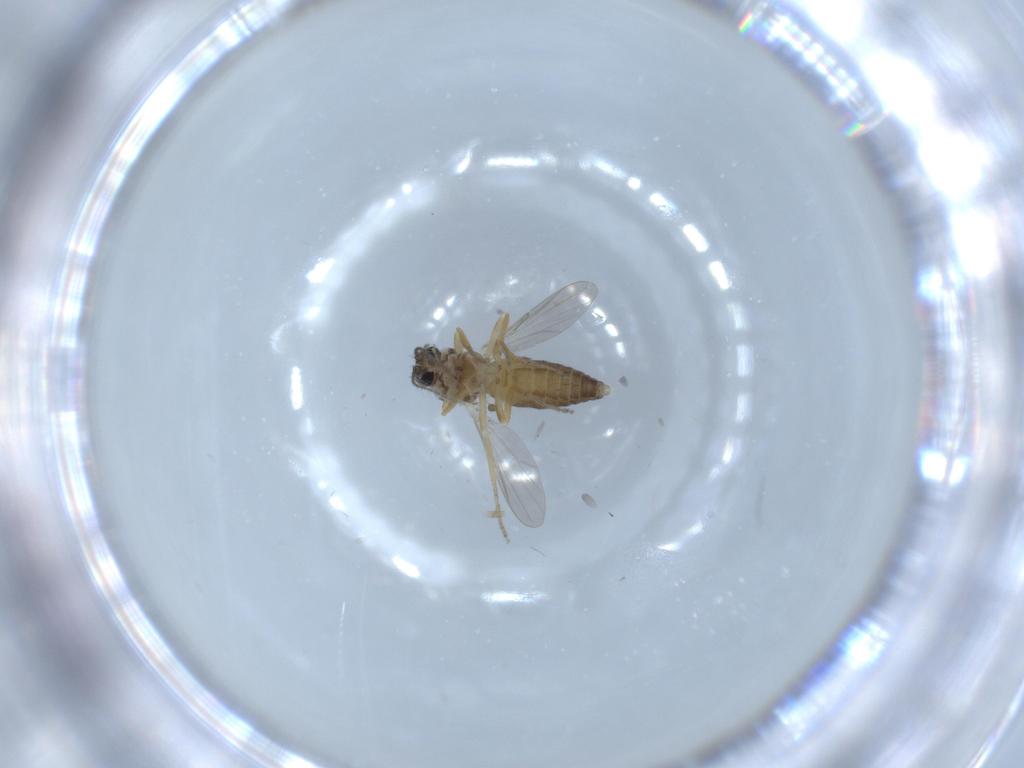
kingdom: Animalia
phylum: Arthropoda
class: Insecta
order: Diptera
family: Ceratopogonidae
